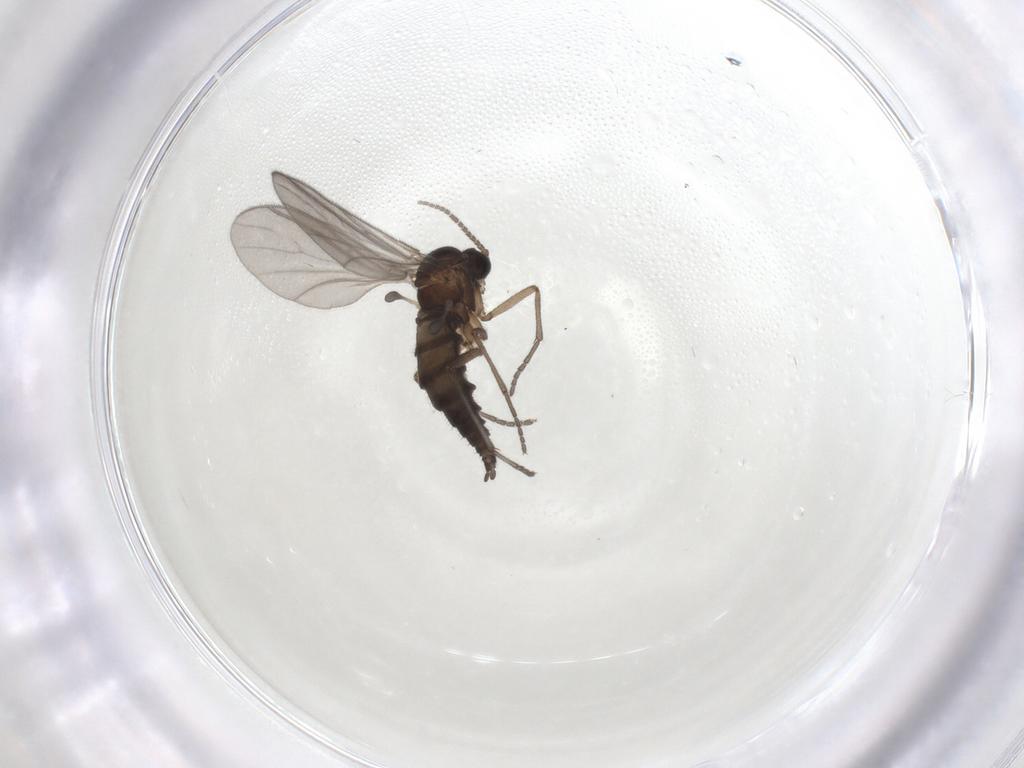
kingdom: Animalia
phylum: Arthropoda
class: Insecta
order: Diptera
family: Sciaridae
